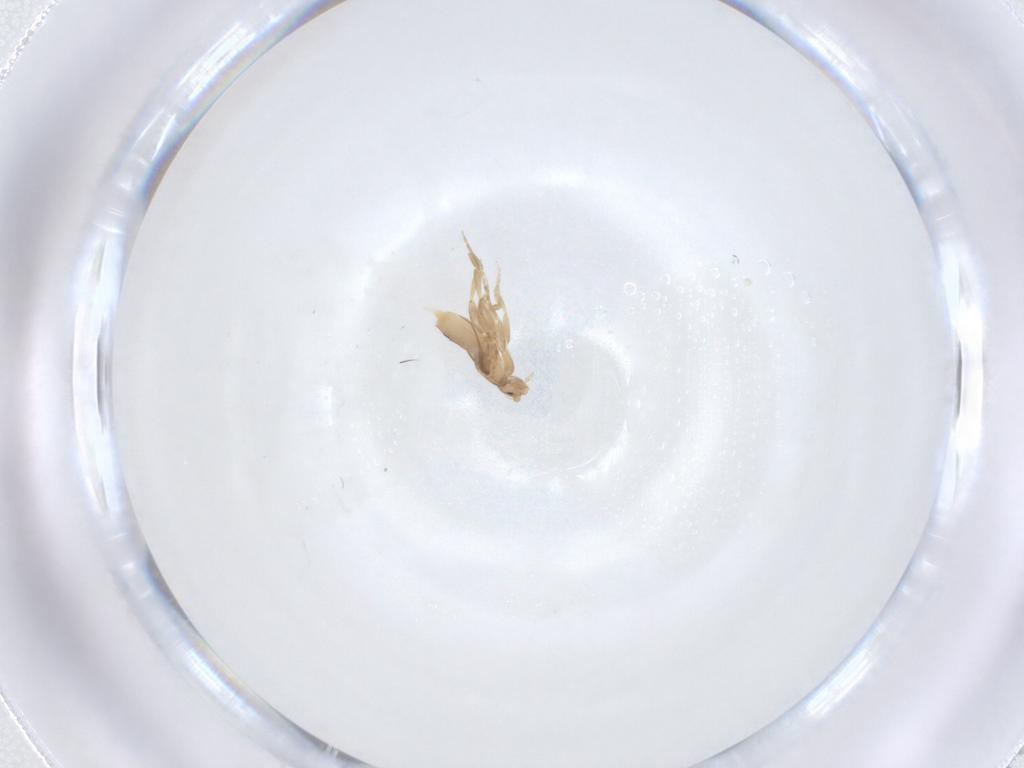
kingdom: Animalia
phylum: Arthropoda
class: Insecta
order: Diptera
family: Phoridae
